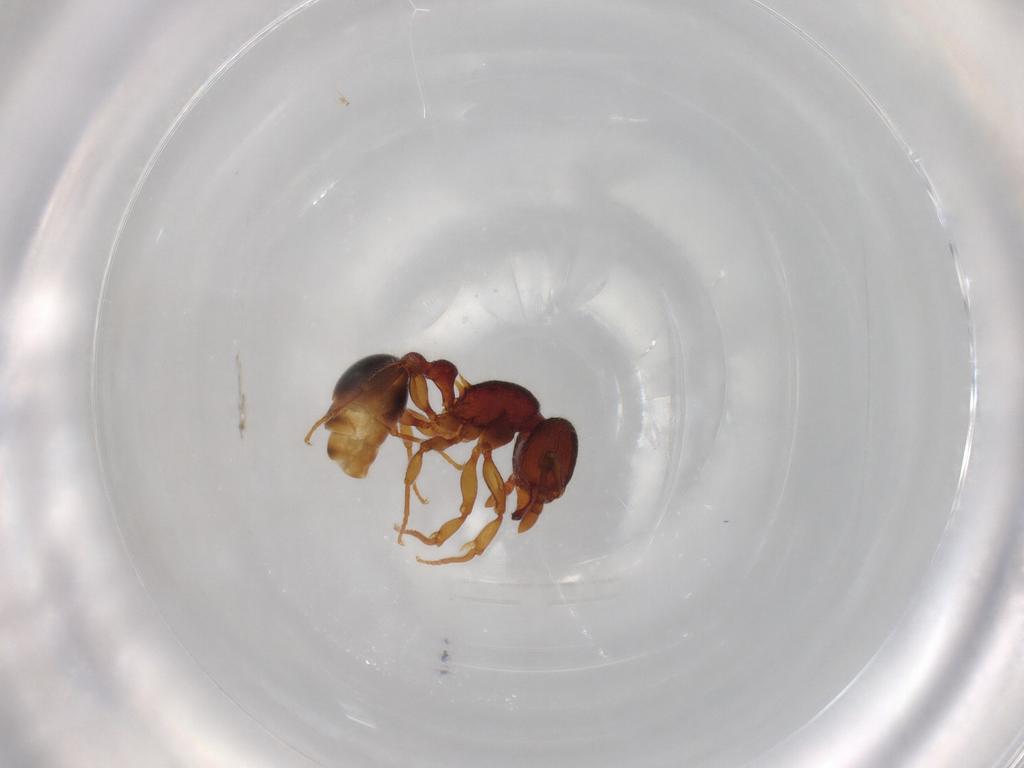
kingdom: Animalia
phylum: Arthropoda
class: Insecta
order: Hymenoptera
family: Formicidae
